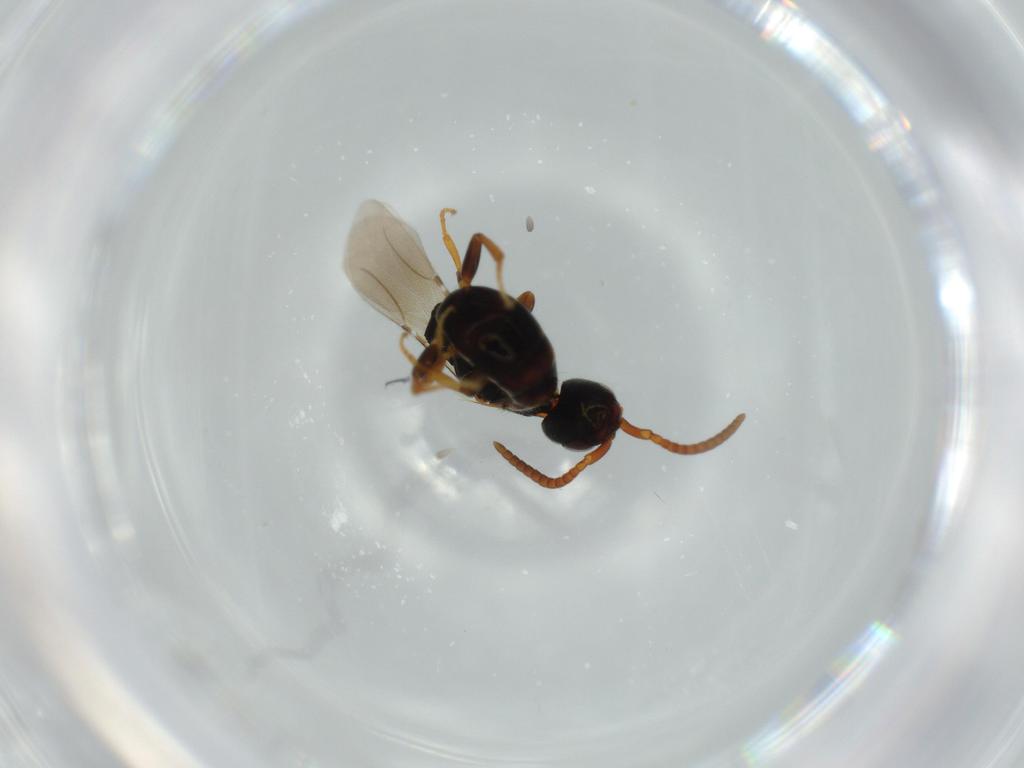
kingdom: Animalia
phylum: Arthropoda
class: Insecta
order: Hymenoptera
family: Bethylidae
